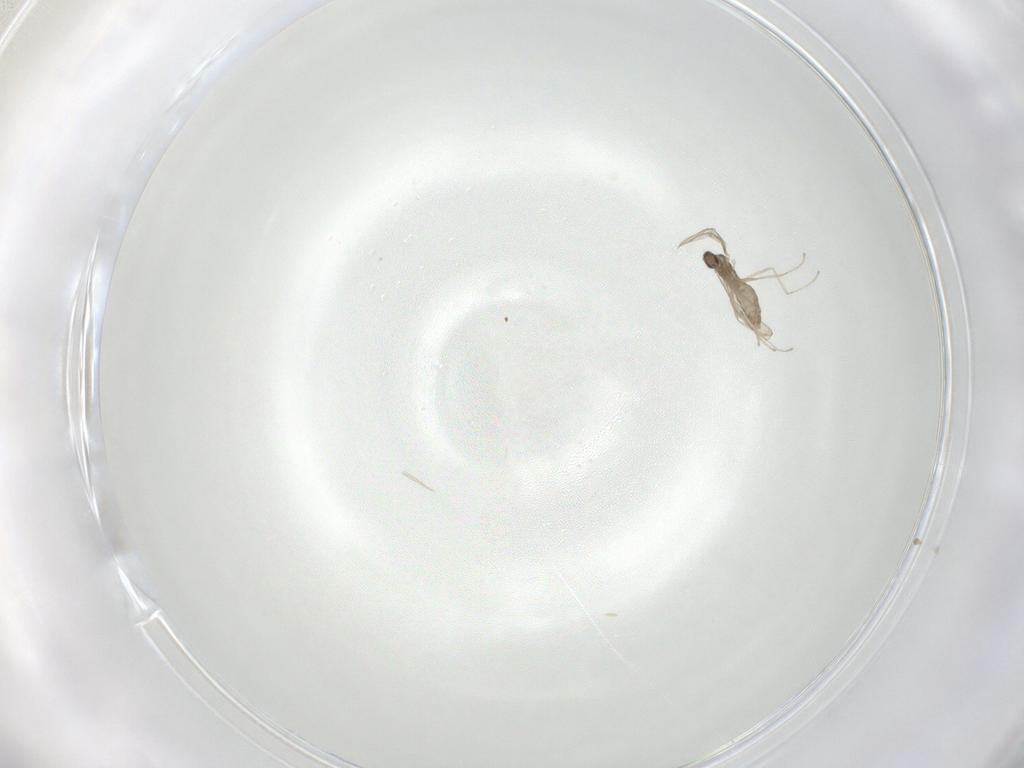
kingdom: Animalia
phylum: Arthropoda
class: Insecta
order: Diptera
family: Cecidomyiidae
